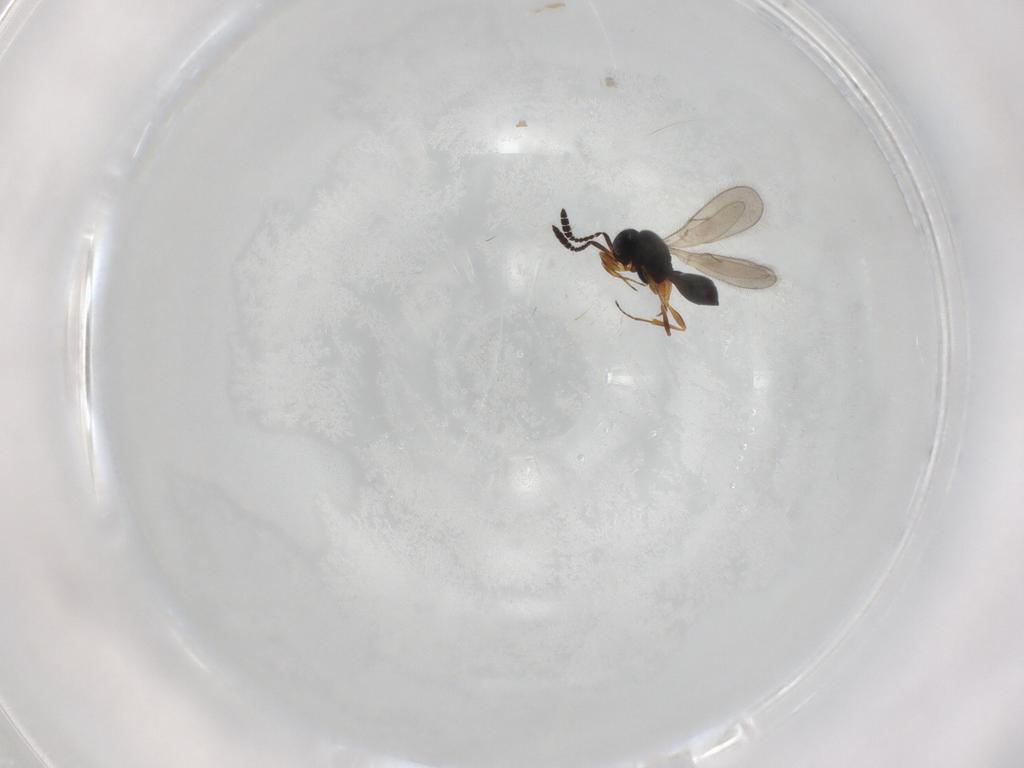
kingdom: Animalia
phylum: Arthropoda
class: Insecta
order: Hymenoptera
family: Scelionidae
